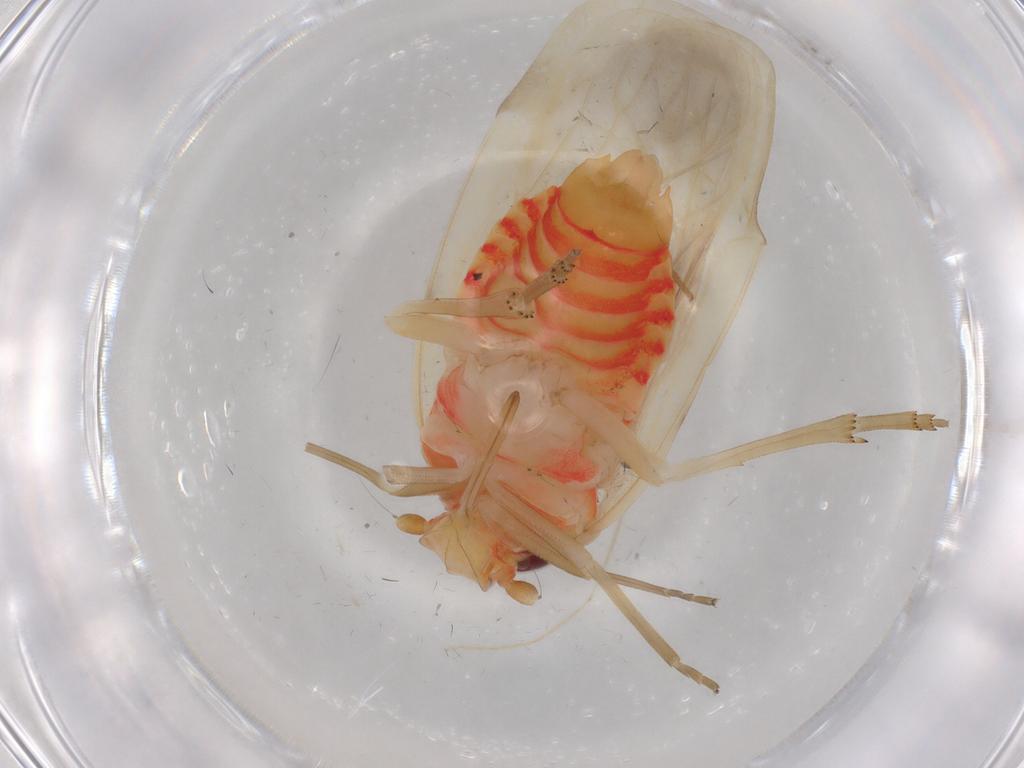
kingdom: Animalia
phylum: Arthropoda
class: Insecta
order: Hemiptera
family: Achilidae
